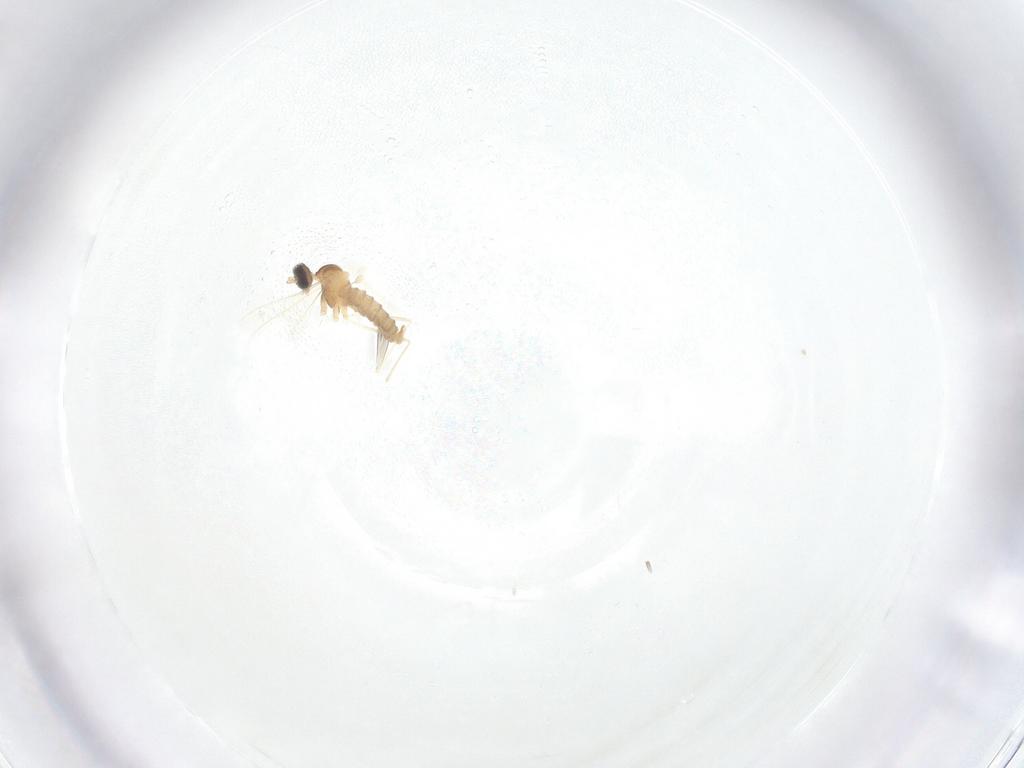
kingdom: Animalia
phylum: Arthropoda
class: Insecta
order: Diptera
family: Cecidomyiidae
